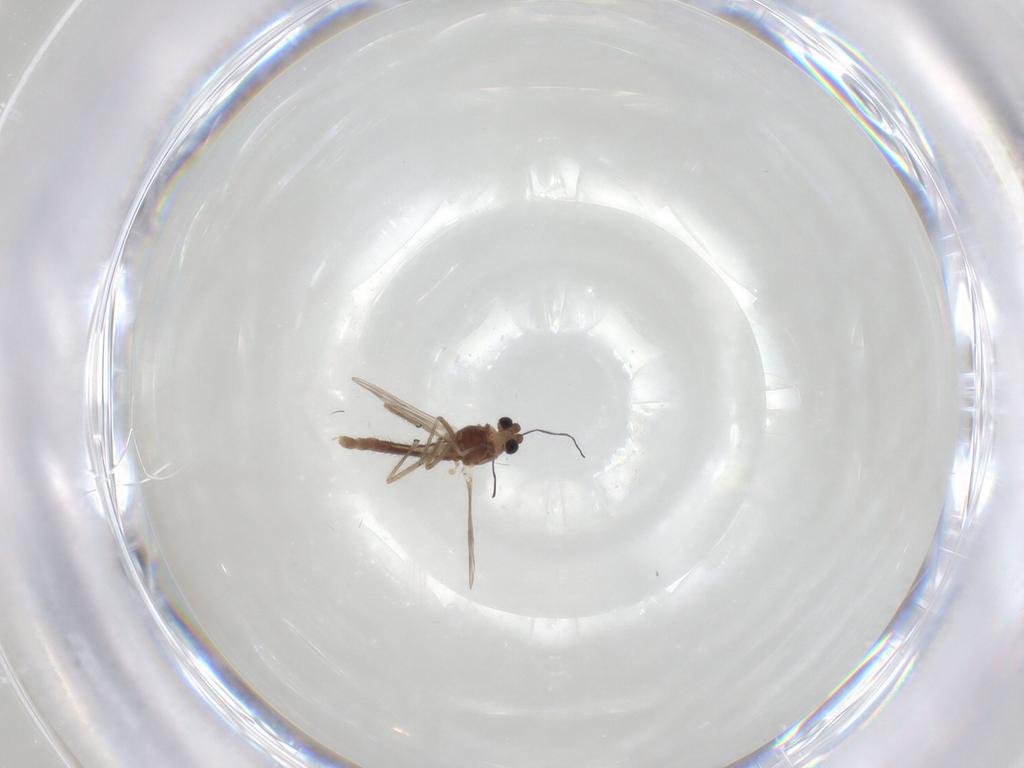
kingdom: Animalia
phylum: Arthropoda
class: Insecta
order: Diptera
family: Chironomidae
